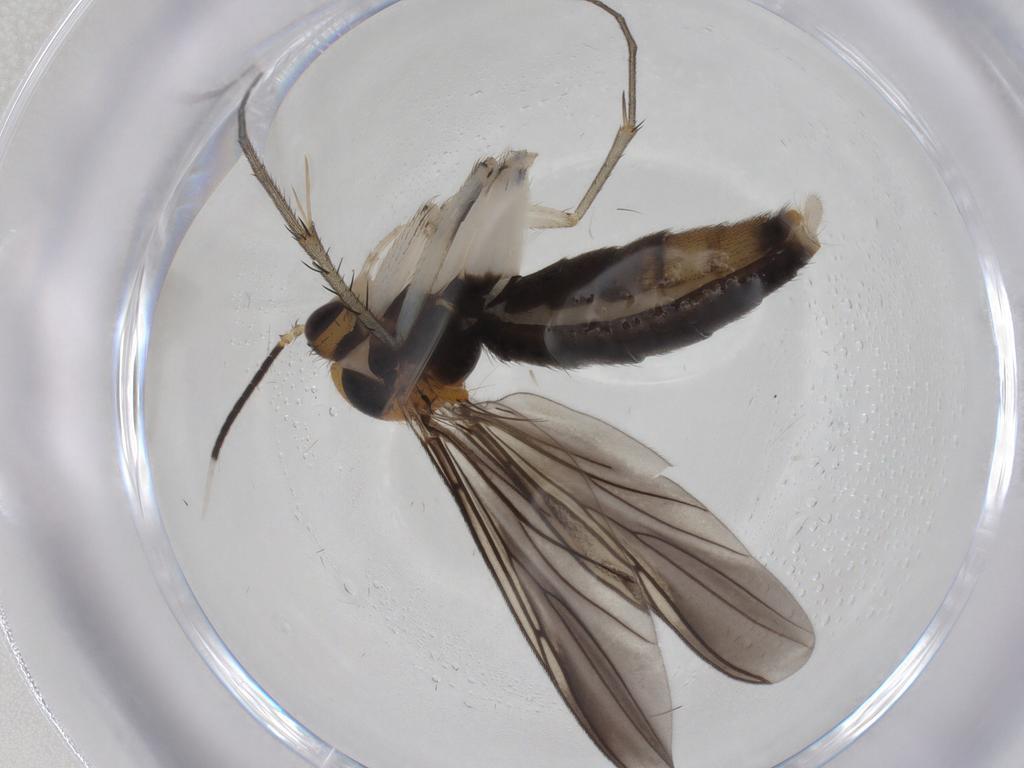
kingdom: Animalia
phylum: Arthropoda
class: Insecta
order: Diptera
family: Mycetophilidae
